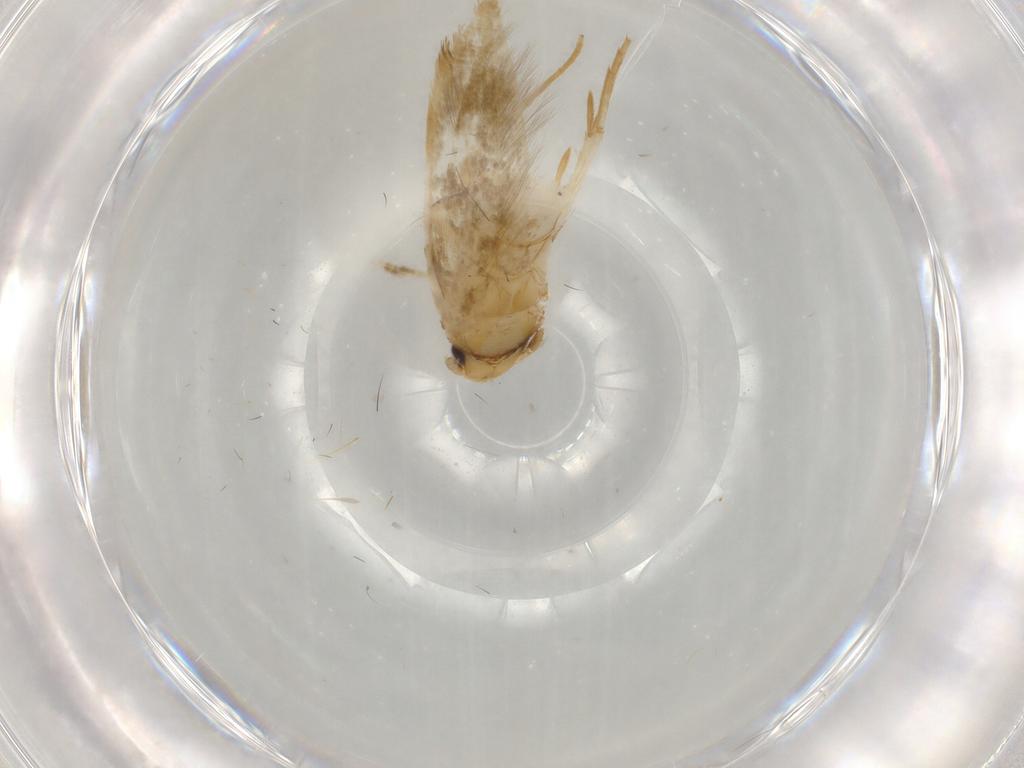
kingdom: Animalia
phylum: Arthropoda
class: Insecta
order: Lepidoptera
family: Tineidae
